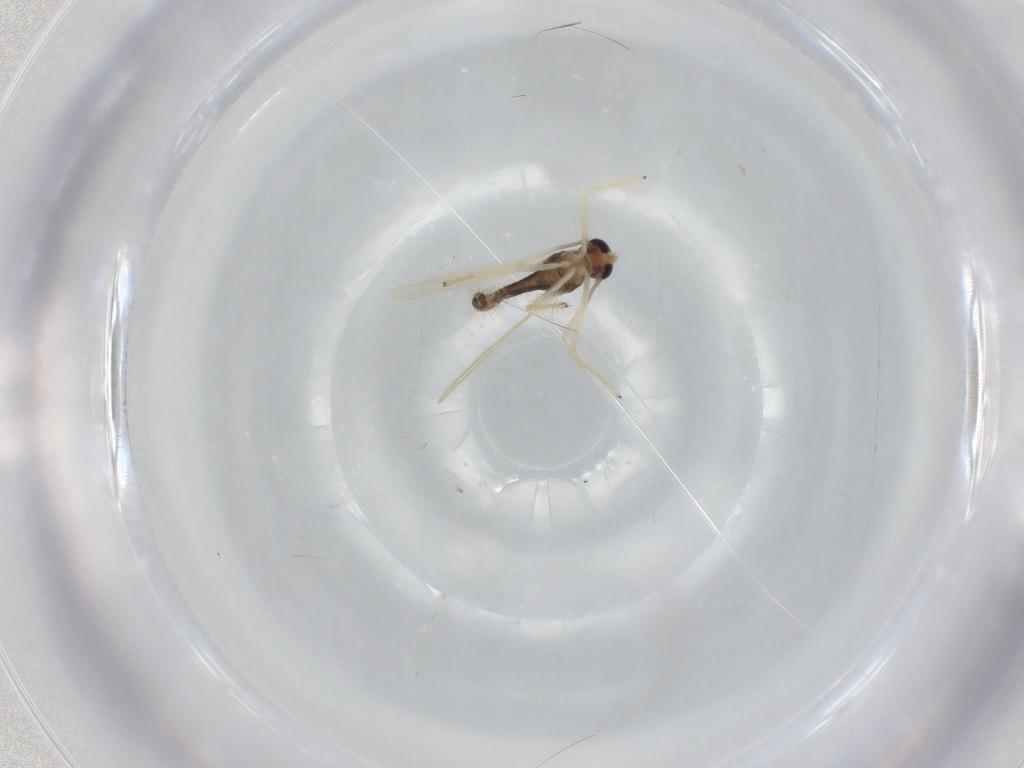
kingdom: Animalia
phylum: Arthropoda
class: Insecta
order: Diptera
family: Chironomidae
